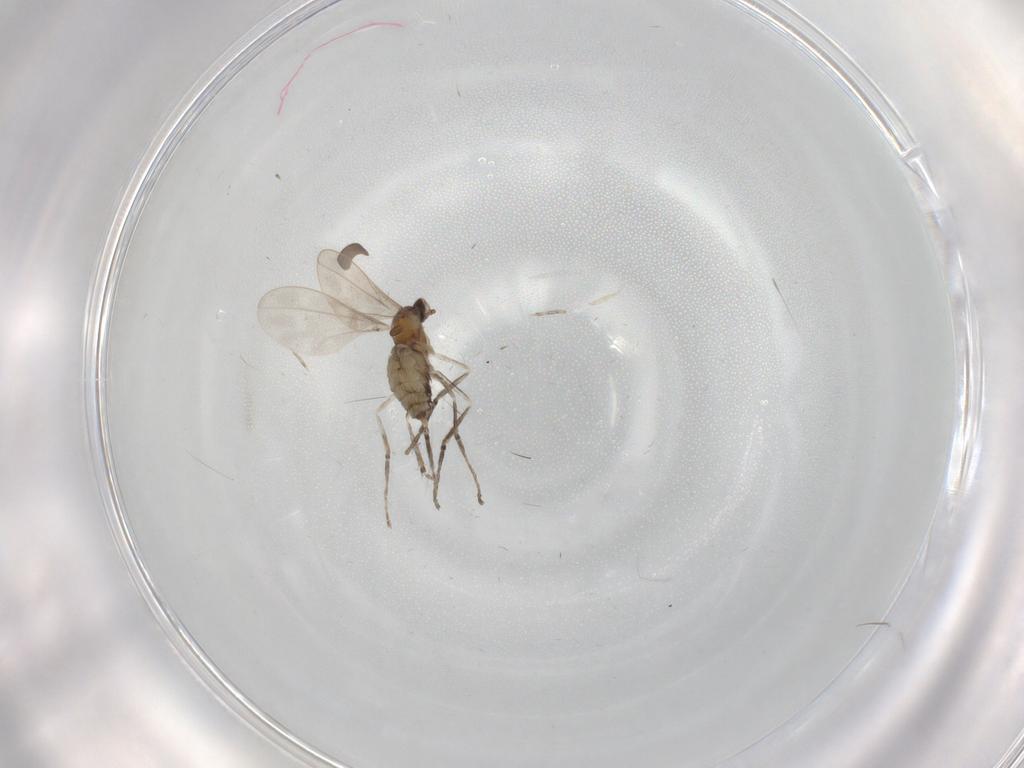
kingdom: Animalia
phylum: Arthropoda
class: Insecta
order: Diptera
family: Cecidomyiidae
